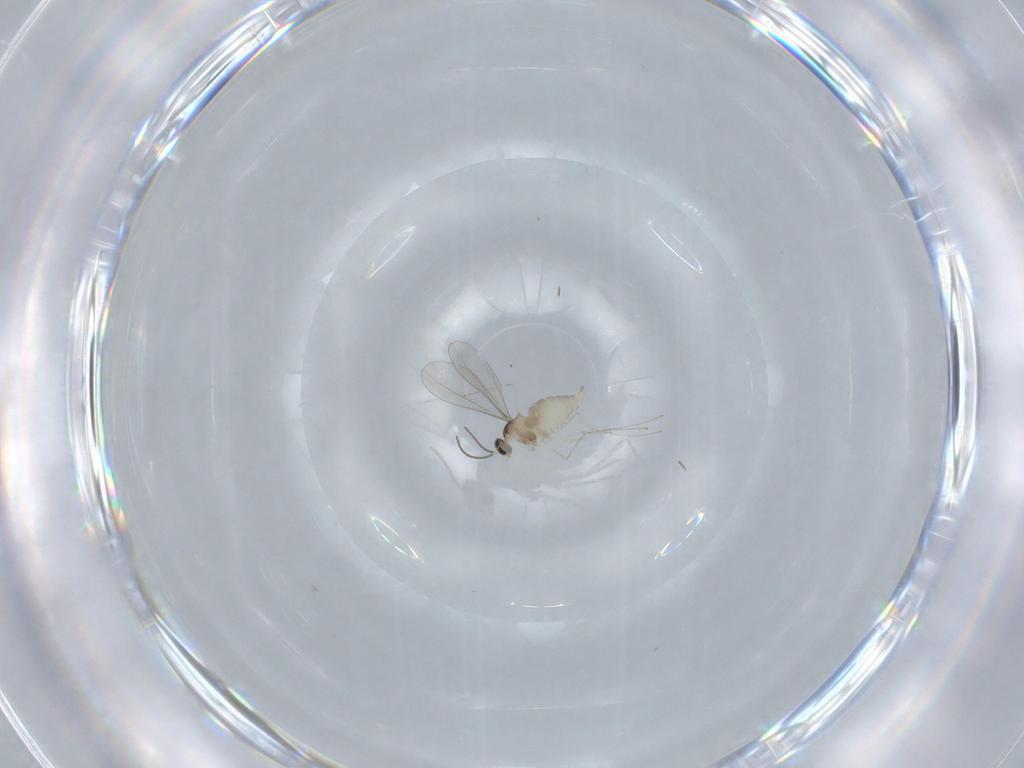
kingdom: Animalia
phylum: Arthropoda
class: Insecta
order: Diptera
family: Cecidomyiidae
